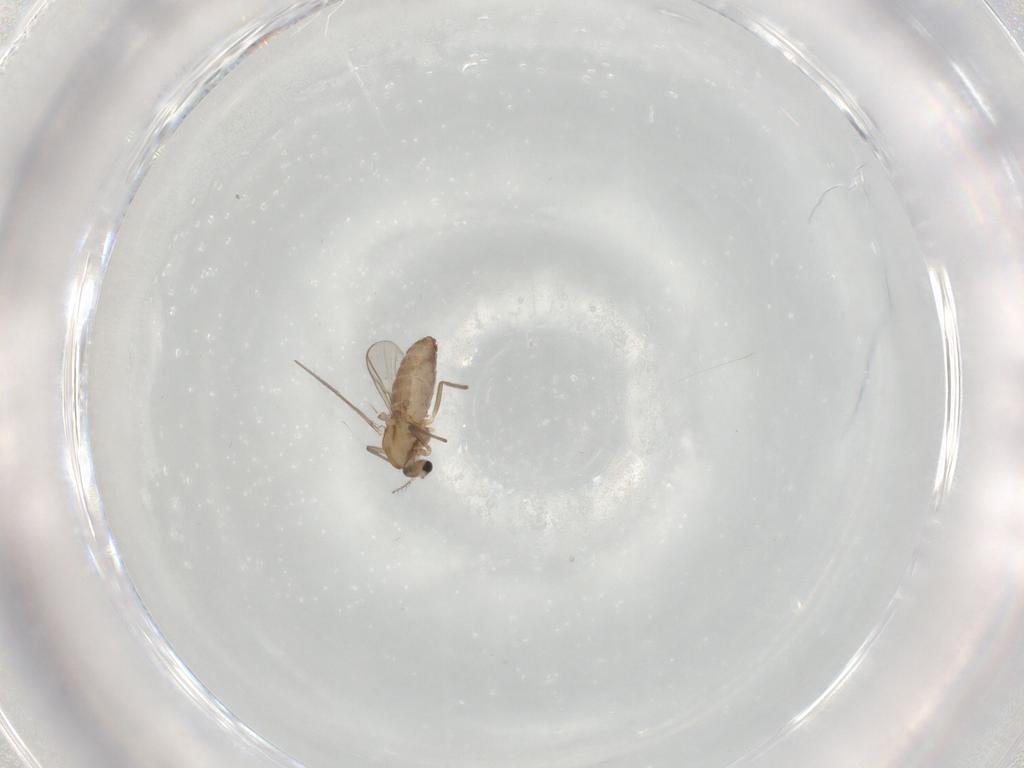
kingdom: Animalia
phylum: Arthropoda
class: Insecta
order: Diptera
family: Chironomidae
